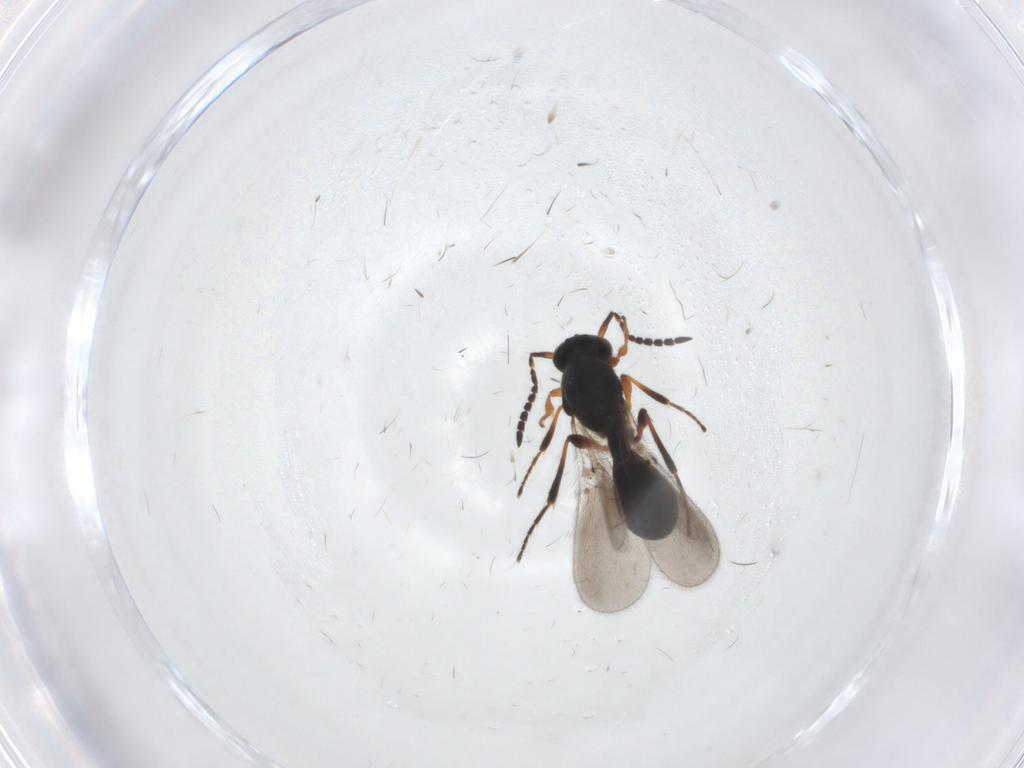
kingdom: Animalia
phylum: Arthropoda
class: Insecta
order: Hymenoptera
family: Platygastridae
